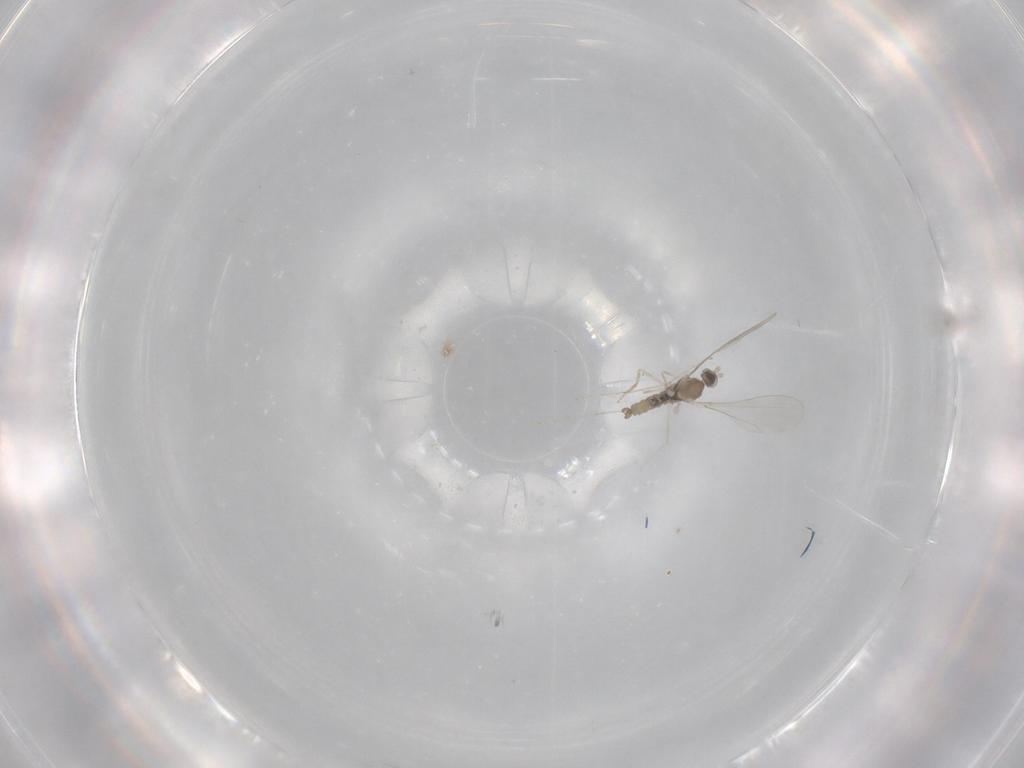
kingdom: Animalia
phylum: Arthropoda
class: Insecta
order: Diptera
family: Cecidomyiidae
